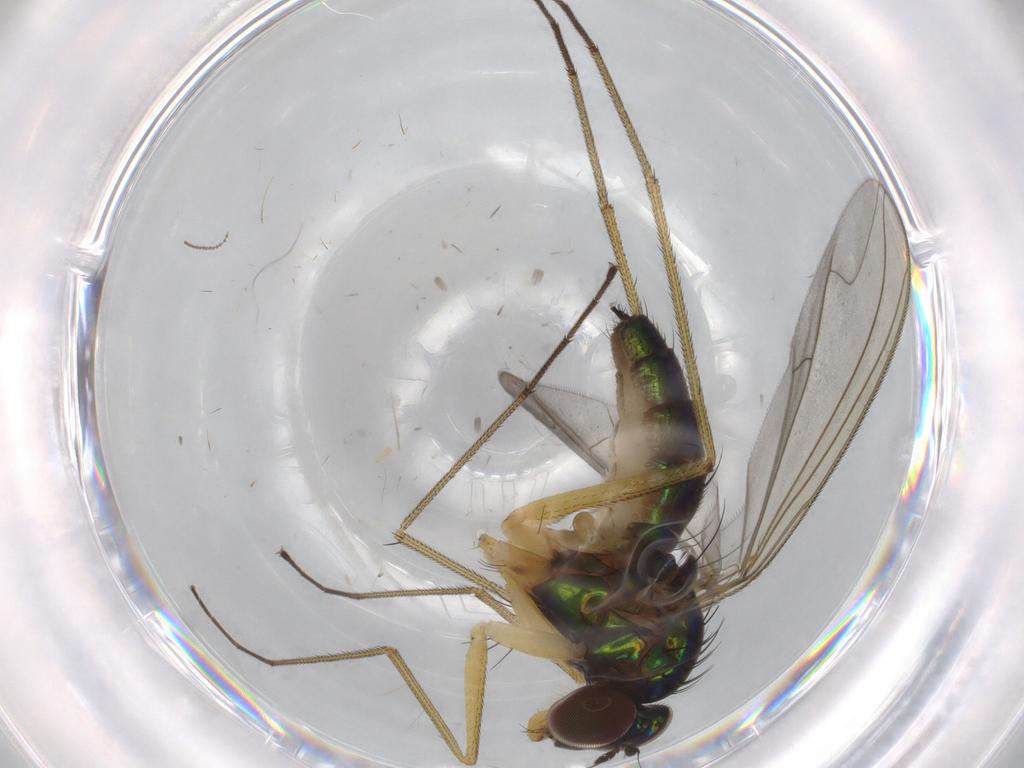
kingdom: Animalia
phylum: Arthropoda
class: Insecta
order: Diptera
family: Dolichopodidae
